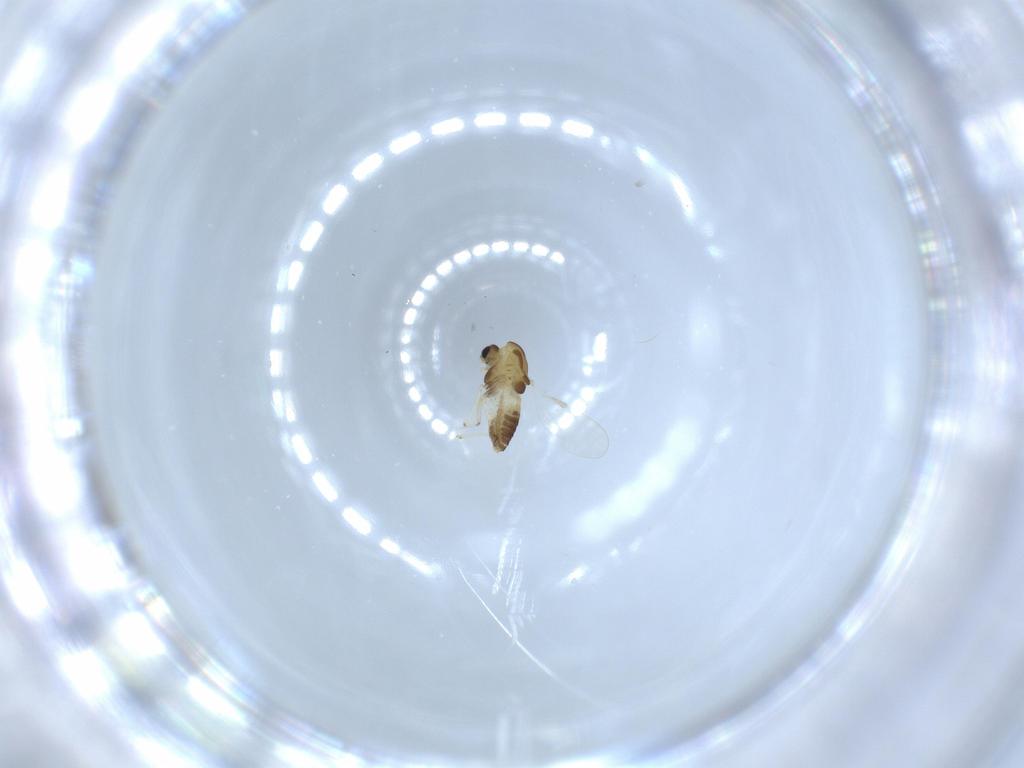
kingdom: Animalia
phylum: Arthropoda
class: Insecta
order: Diptera
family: Chironomidae
